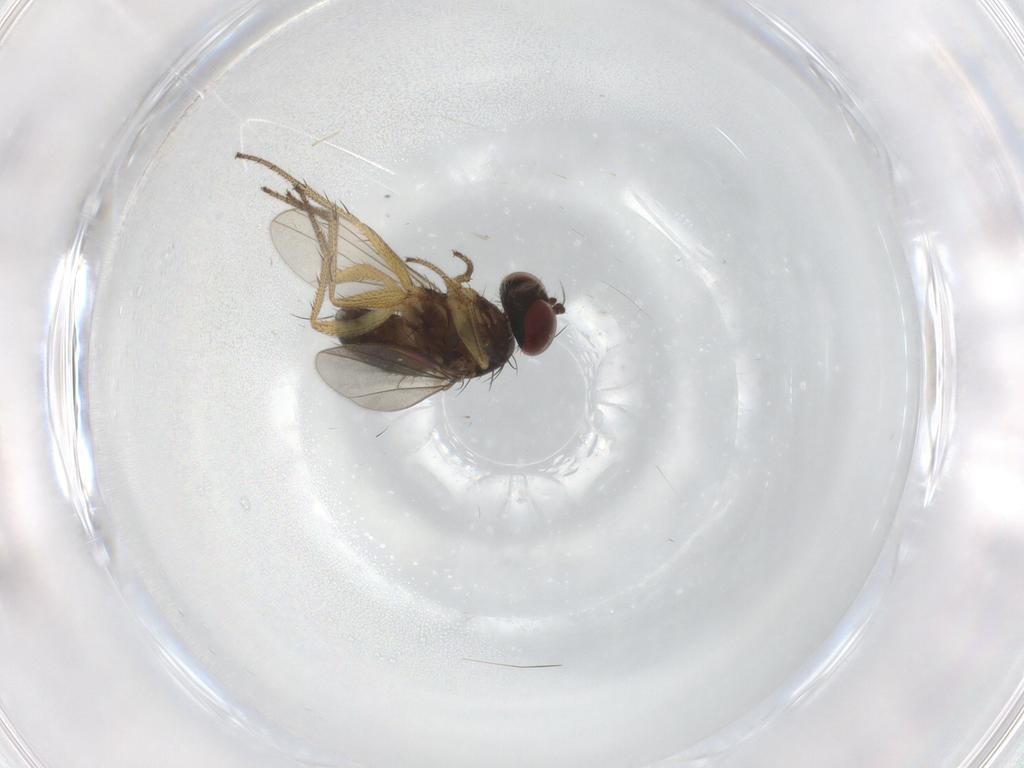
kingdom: Animalia
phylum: Arthropoda
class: Insecta
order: Diptera
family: Dolichopodidae
